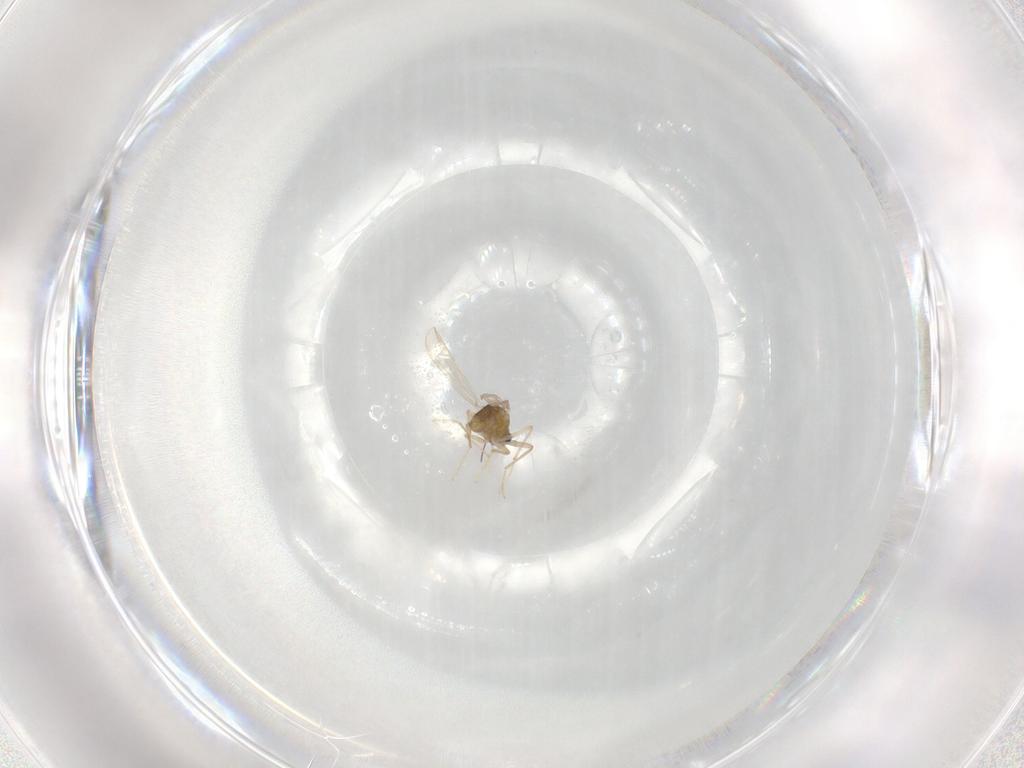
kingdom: Animalia
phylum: Arthropoda
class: Insecta
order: Diptera
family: Chironomidae
